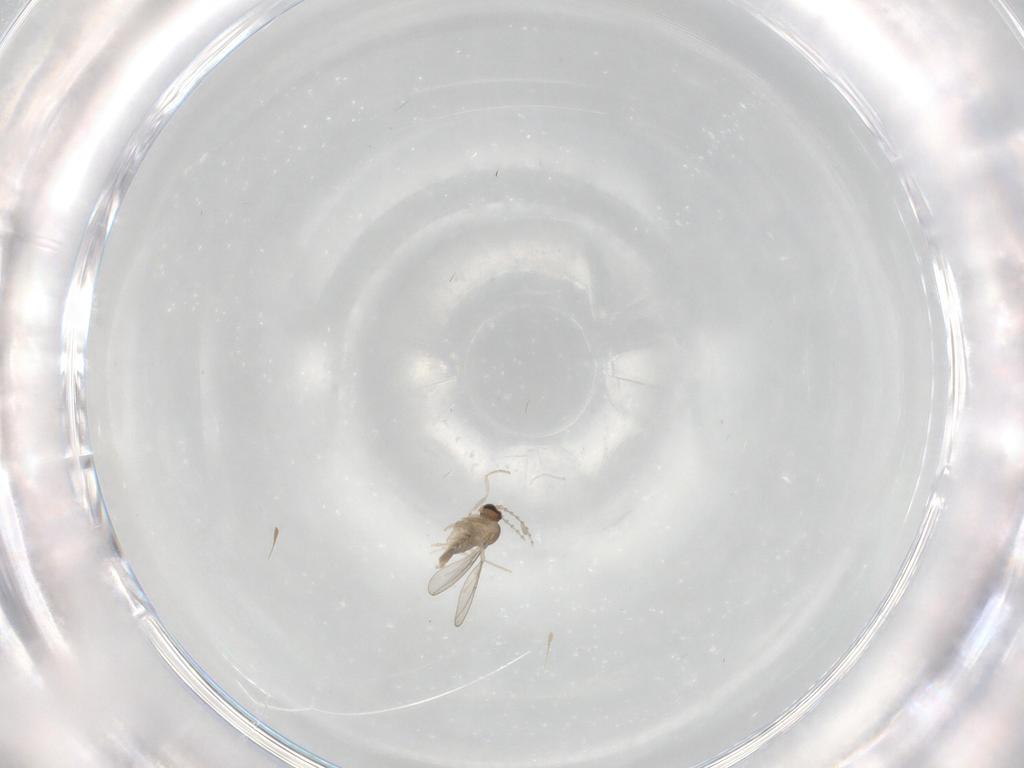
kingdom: Animalia
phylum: Arthropoda
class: Insecta
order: Diptera
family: Cecidomyiidae
